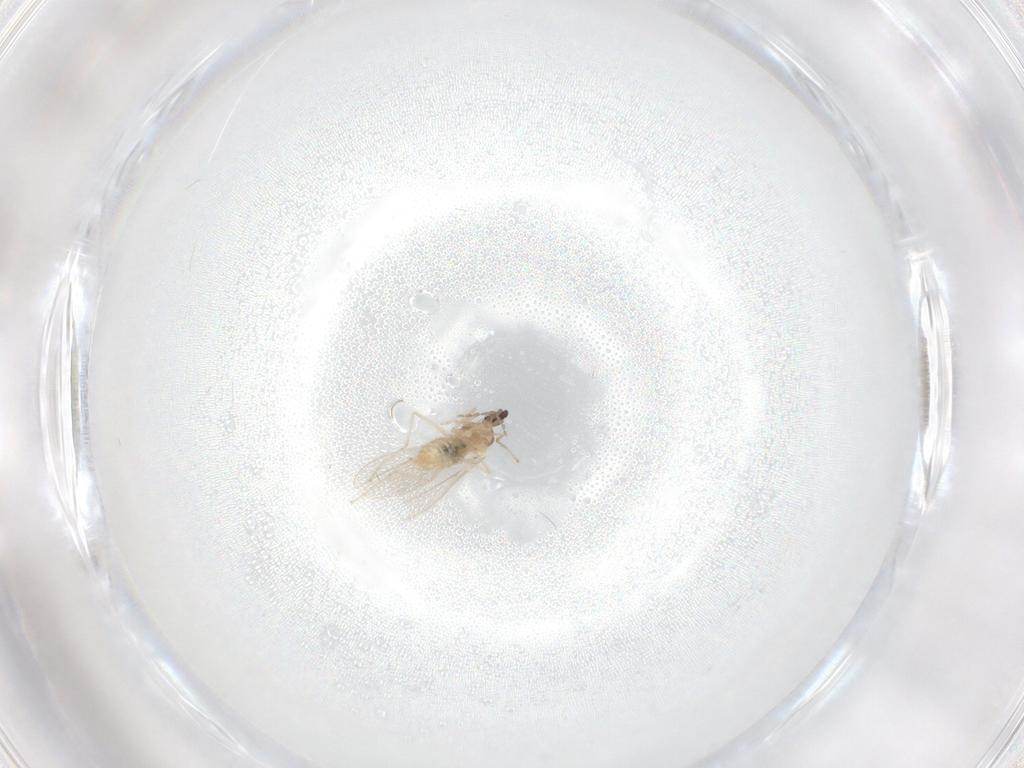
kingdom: Animalia
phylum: Arthropoda
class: Insecta
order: Diptera
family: Cecidomyiidae
